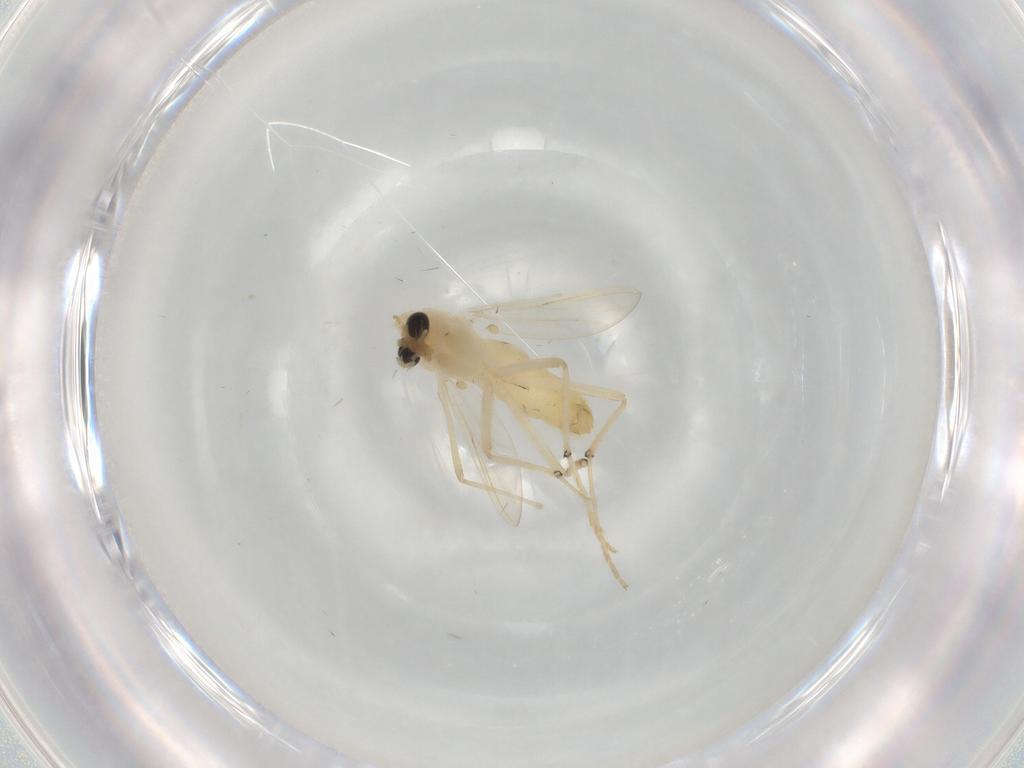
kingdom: Animalia
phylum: Arthropoda
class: Insecta
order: Diptera
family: Chironomidae
